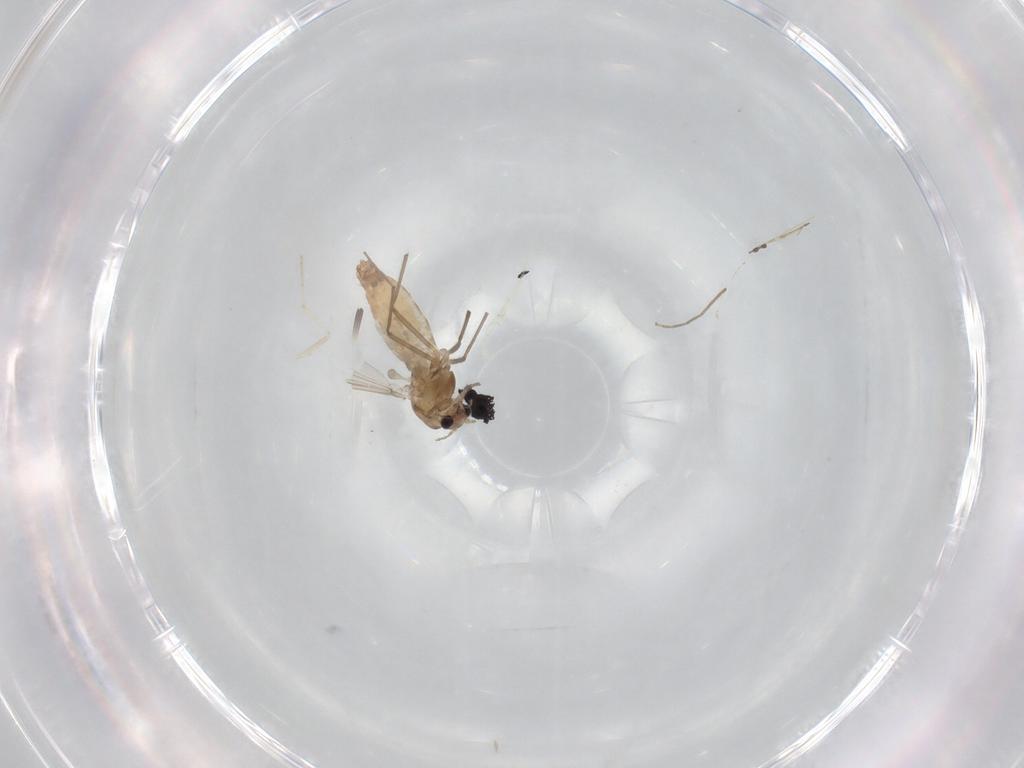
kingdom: Animalia
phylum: Arthropoda
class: Insecta
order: Diptera
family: Chironomidae
